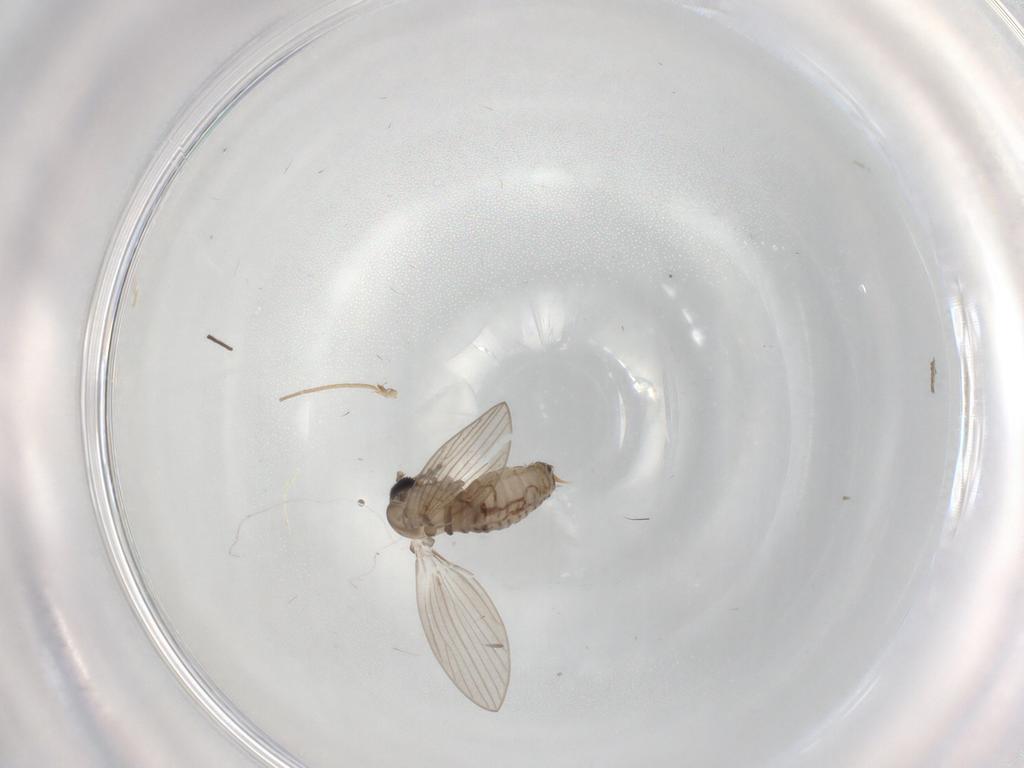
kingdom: Animalia
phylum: Arthropoda
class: Insecta
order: Diptera
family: Psychodidae
